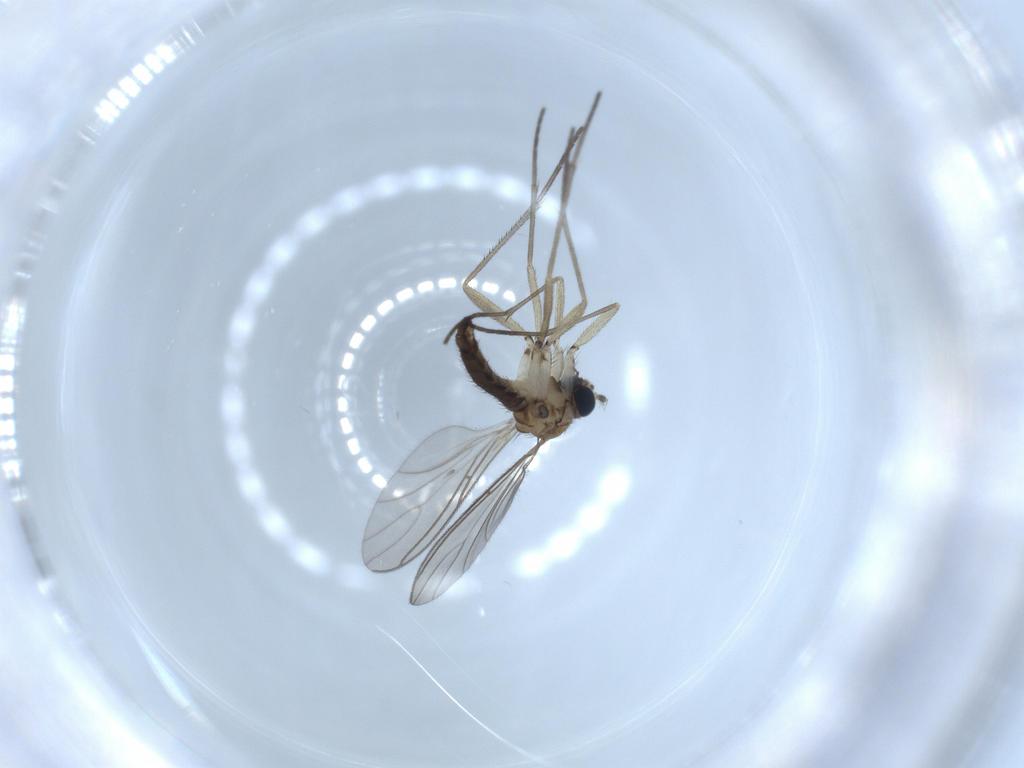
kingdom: Animalia
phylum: Arthropoda
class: Insecta
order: Diptera
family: Sciaridae
